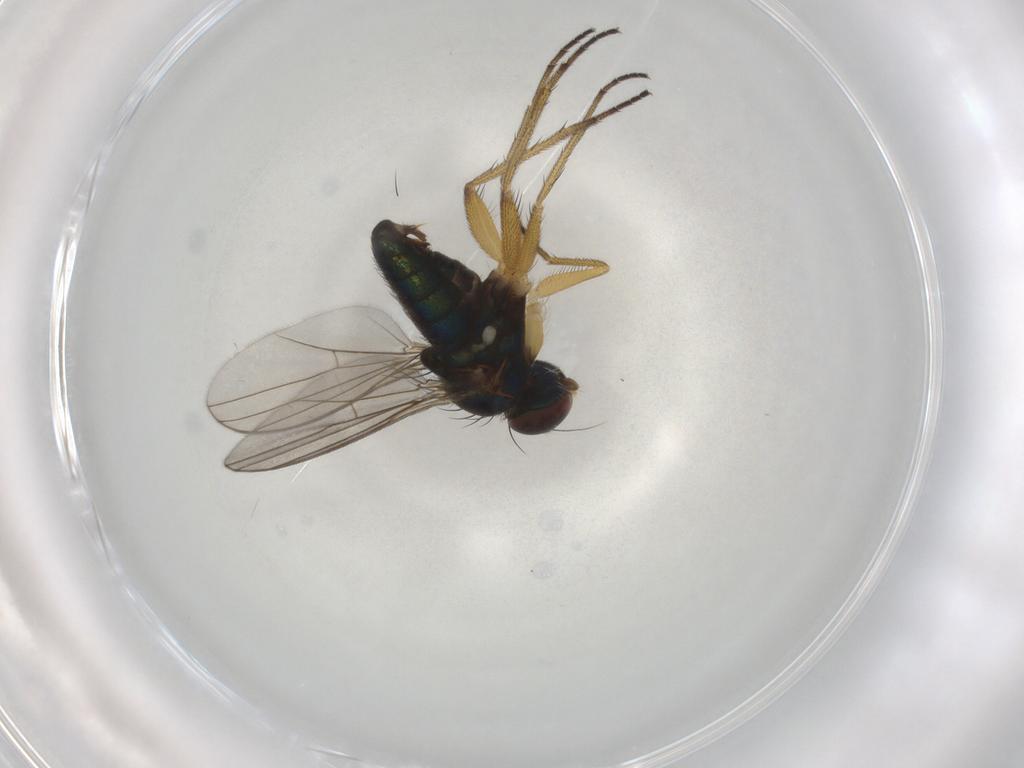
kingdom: Animalia
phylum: Arthropoda
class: Insecta
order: Diptera
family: Dolichopodidae
